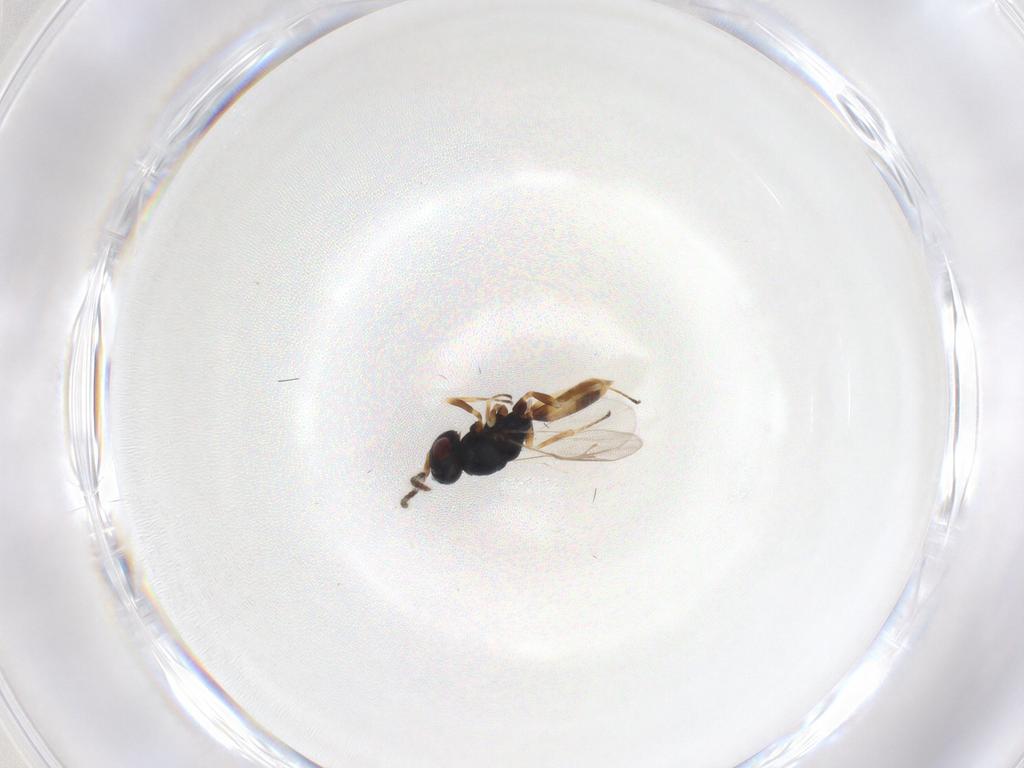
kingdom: Animalia
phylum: Arthropoda
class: Insecta
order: Hymenoptera
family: Pteromalidae
